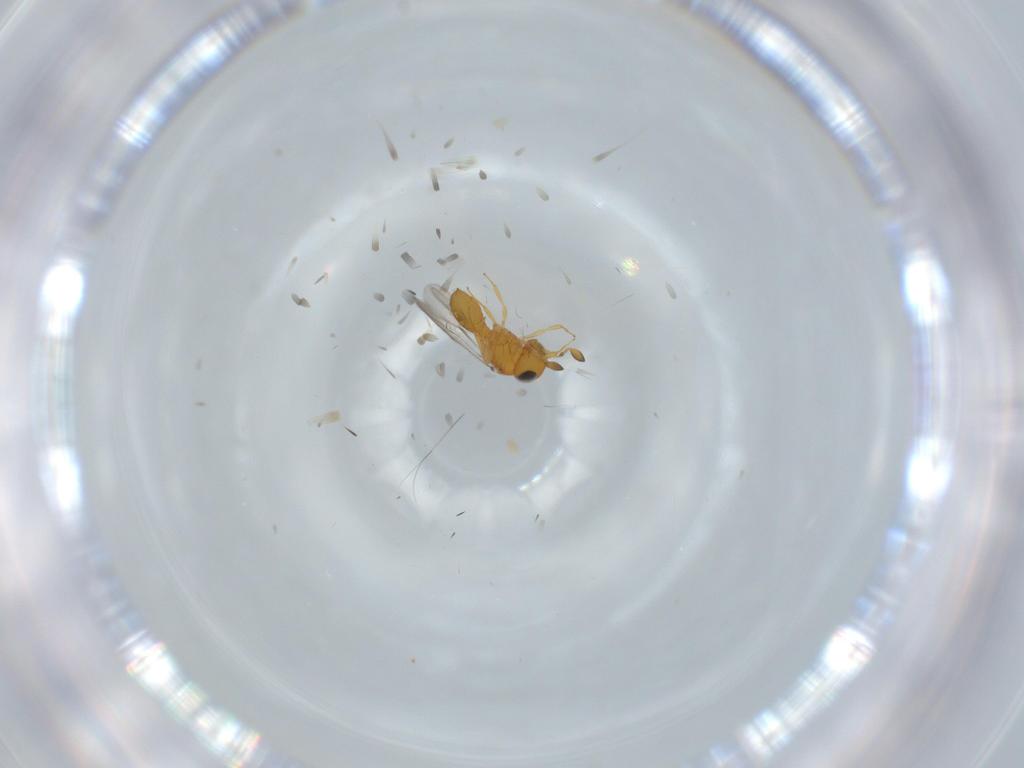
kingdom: Animalia
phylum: Arthropoda
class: Insecta
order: Hymenoptera
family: Scelionidae
